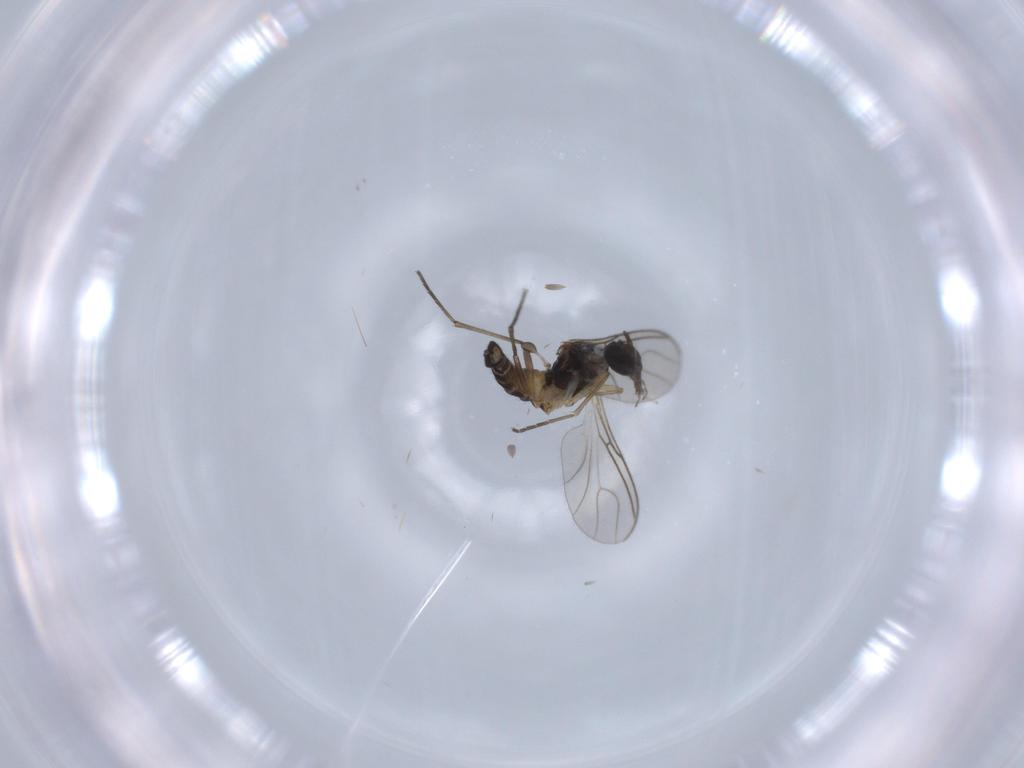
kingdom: Animalia
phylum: Arthropoda
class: Insecta
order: Diptera
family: Sciaridae
